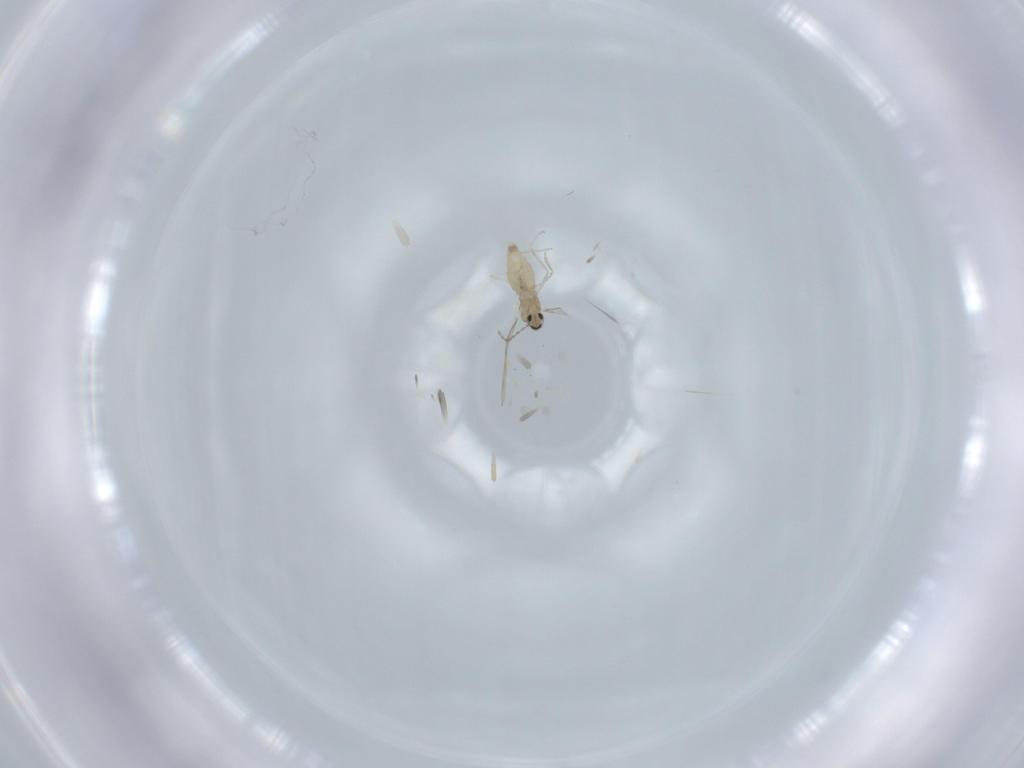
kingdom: Animalia
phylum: Arthropoda
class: Insecta
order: Diptera
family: Cecidomyiidae
